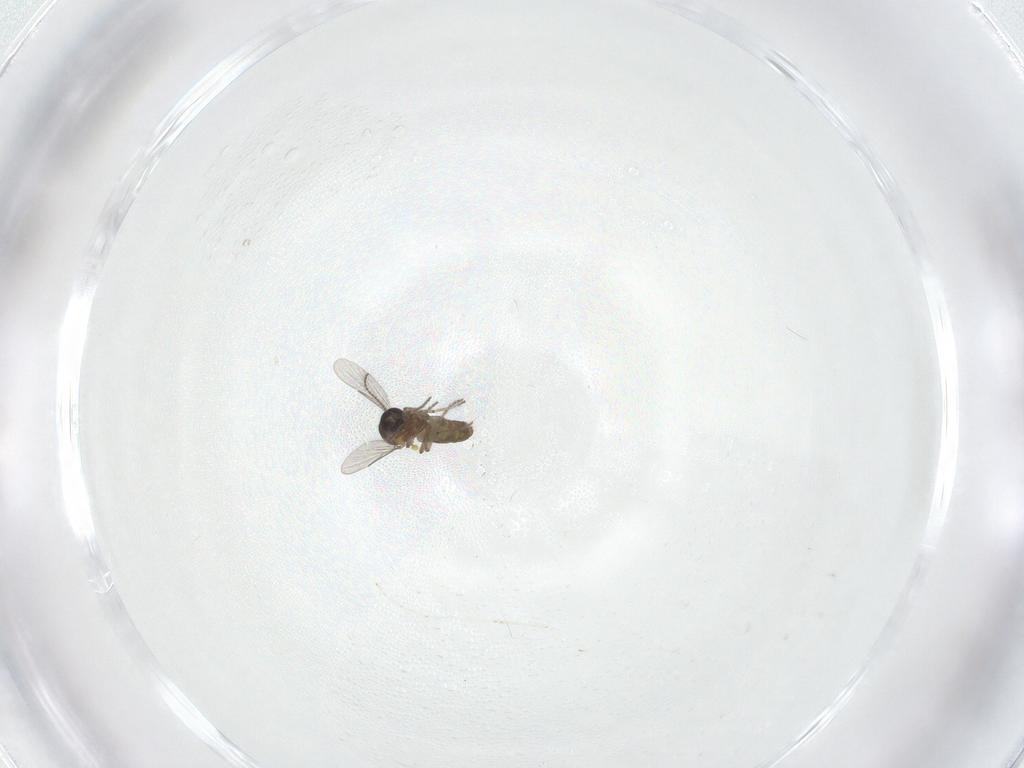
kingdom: Animalia
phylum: Arthropoda
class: Insecta
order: Diptera
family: Ceratopogonidae
